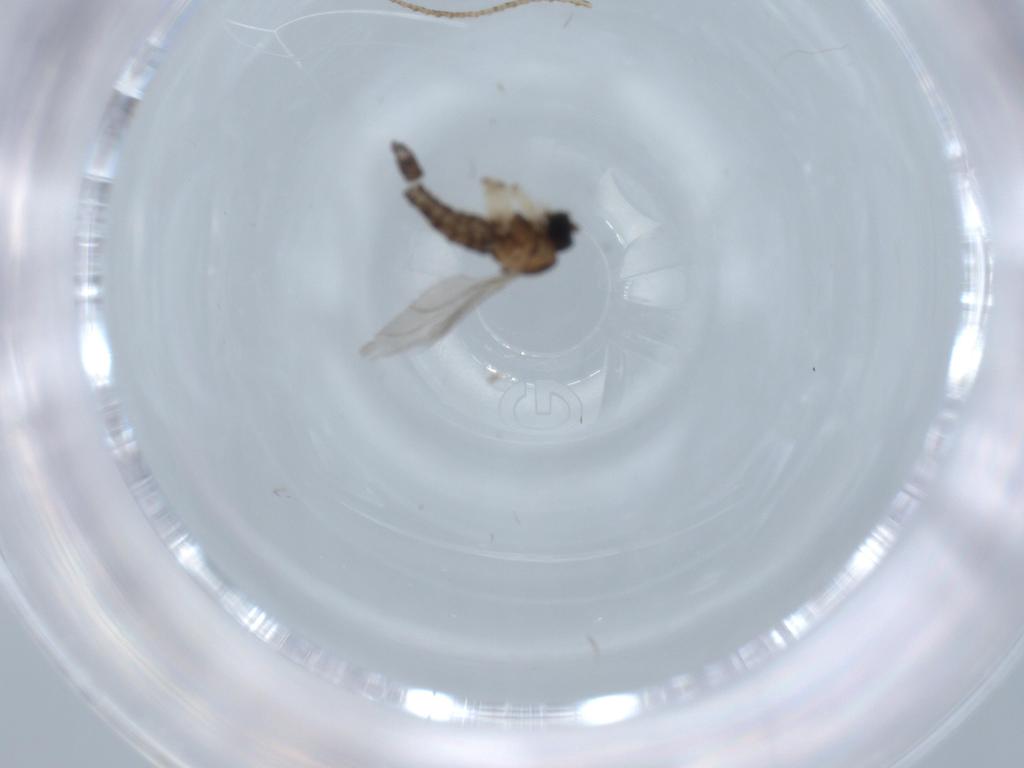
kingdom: Animalia
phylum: Arthropoda
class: Insecta
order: Diptera
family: Sciaridae
